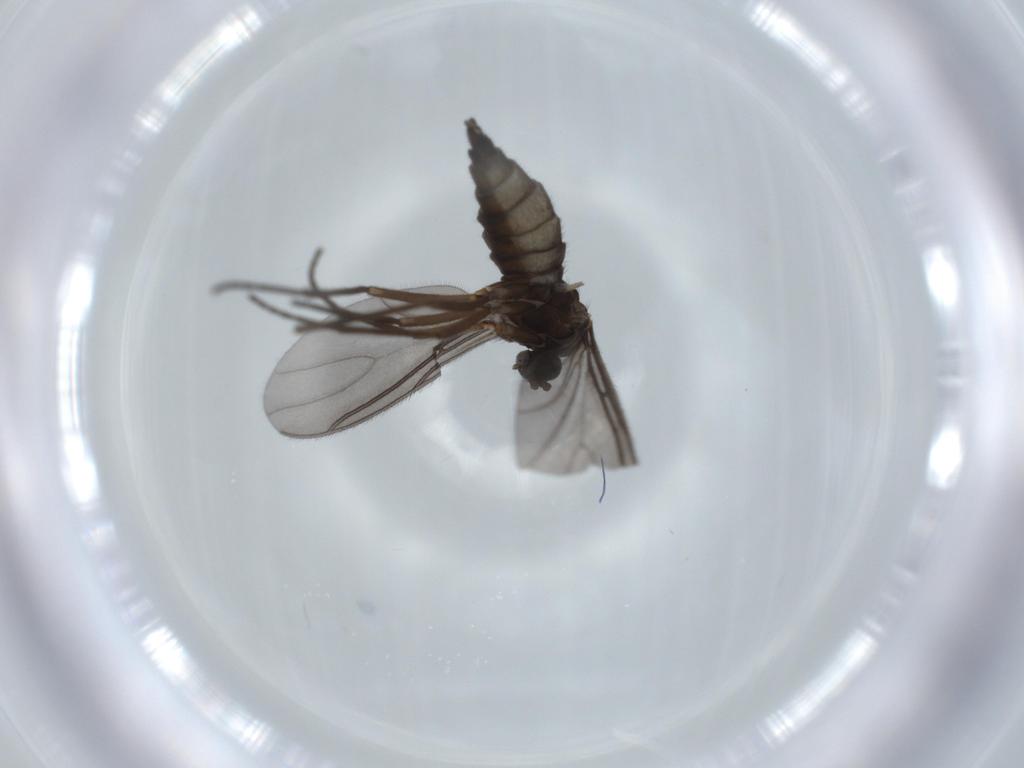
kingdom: Animalia
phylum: Arthropoda
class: Insecta
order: Diptera
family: Sciaridae
